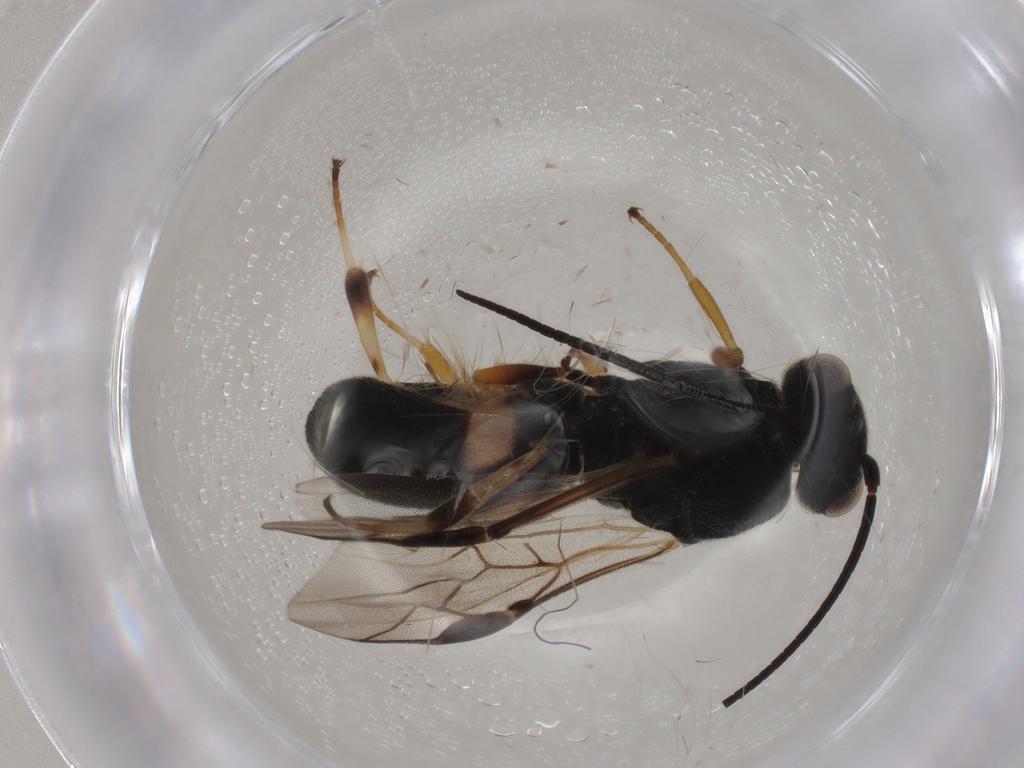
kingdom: Animalia
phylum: Arthropoda
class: Insecta
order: Hymenoptera
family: Braconidae
